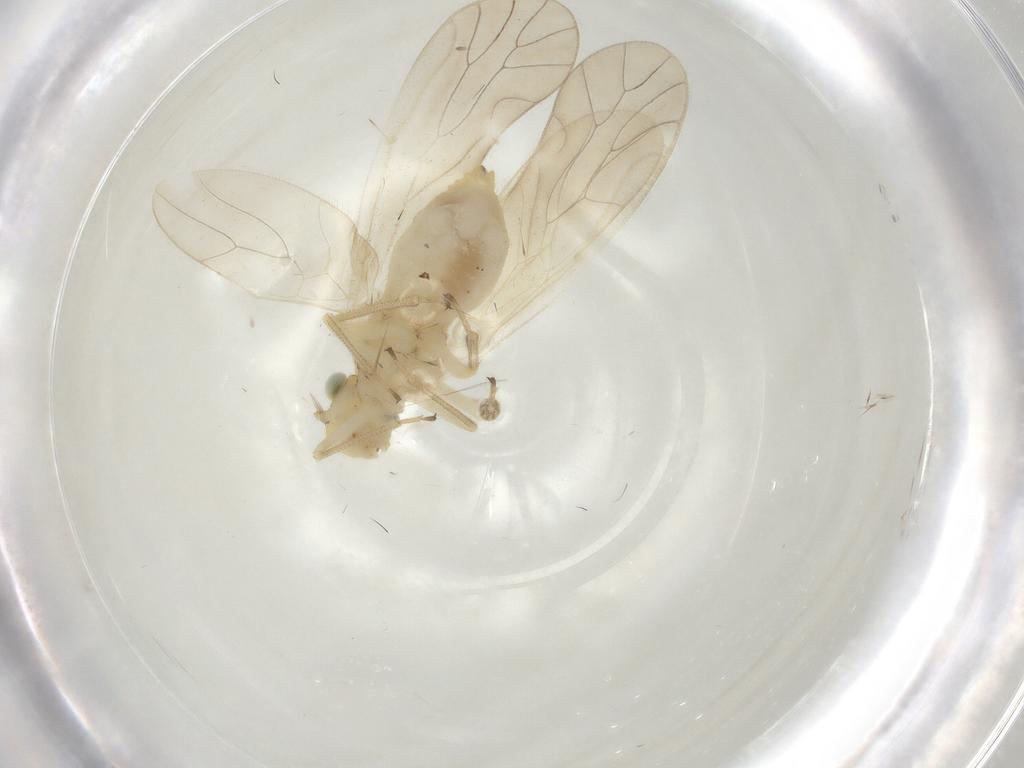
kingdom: Animalia
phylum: Arthropoda
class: Insecta
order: Psocodea
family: Caeciliusidae
